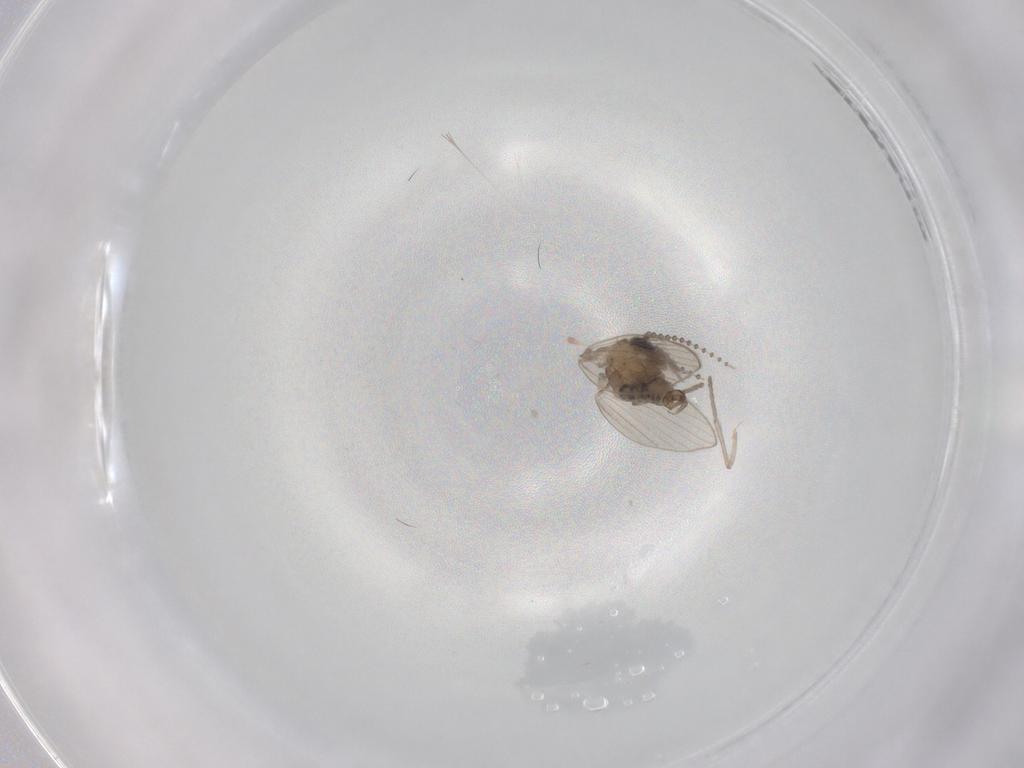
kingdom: Animalia
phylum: Arthropoda
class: Insecta
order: Diptera
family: Psychodidae
